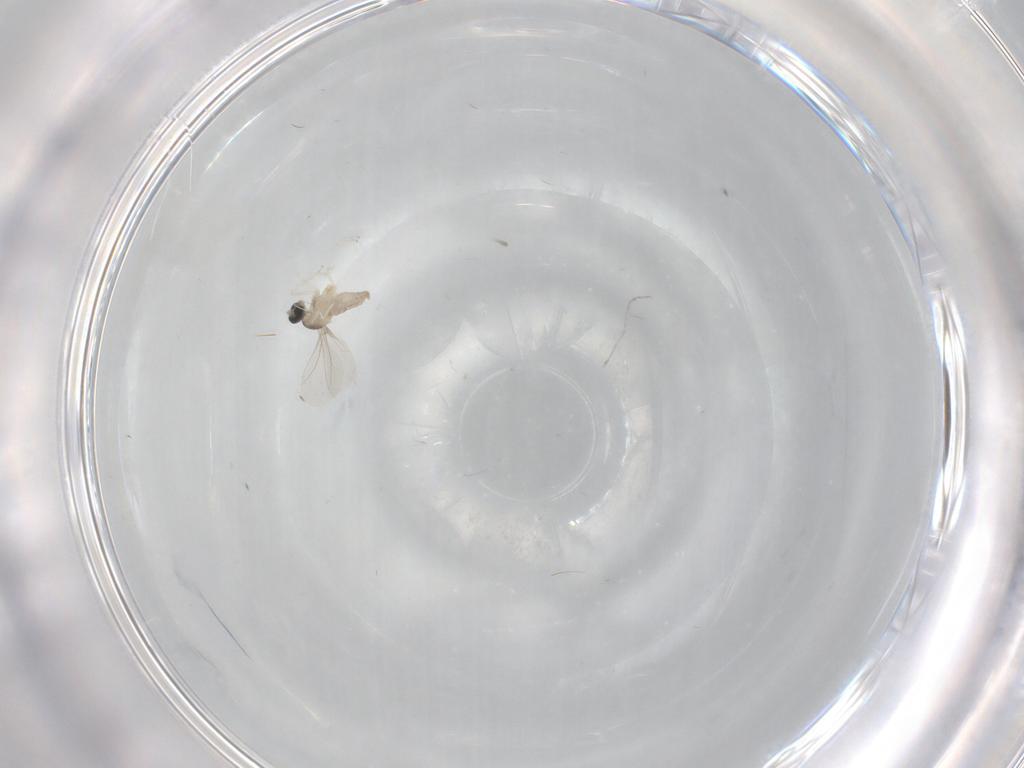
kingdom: Animalia
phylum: Arthropoda
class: Insecta
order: Diptera
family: Cecidomyiidae
